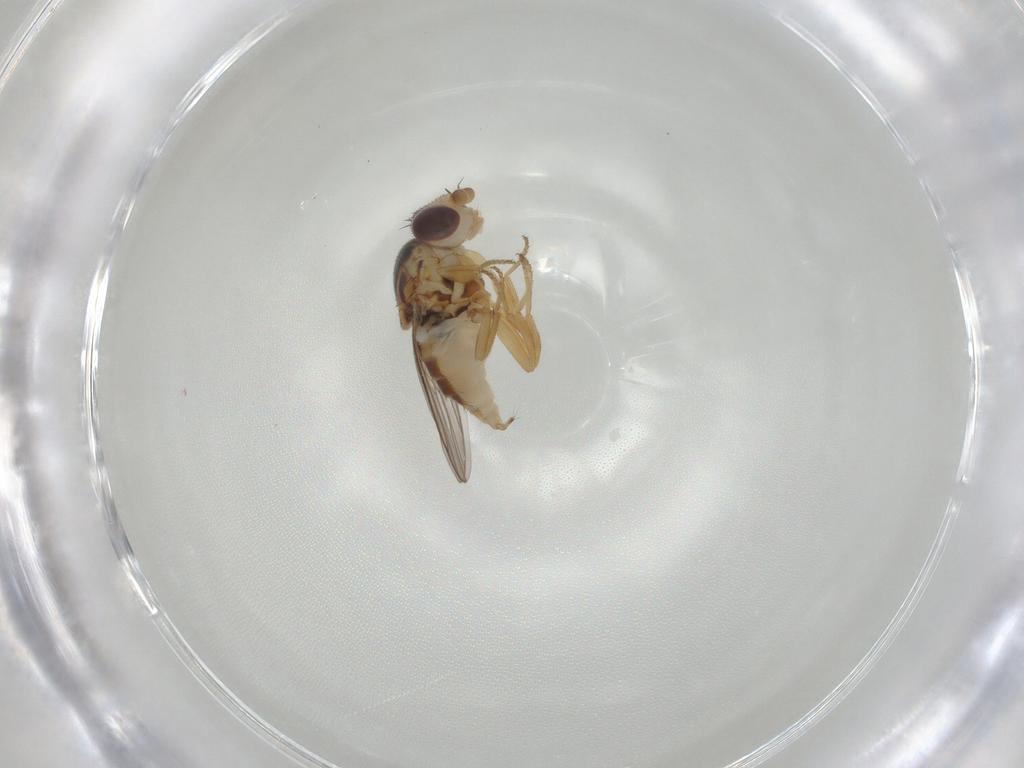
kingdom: Animalia
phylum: Arthropoda
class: Insecta
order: Diptera
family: Chloropidae
